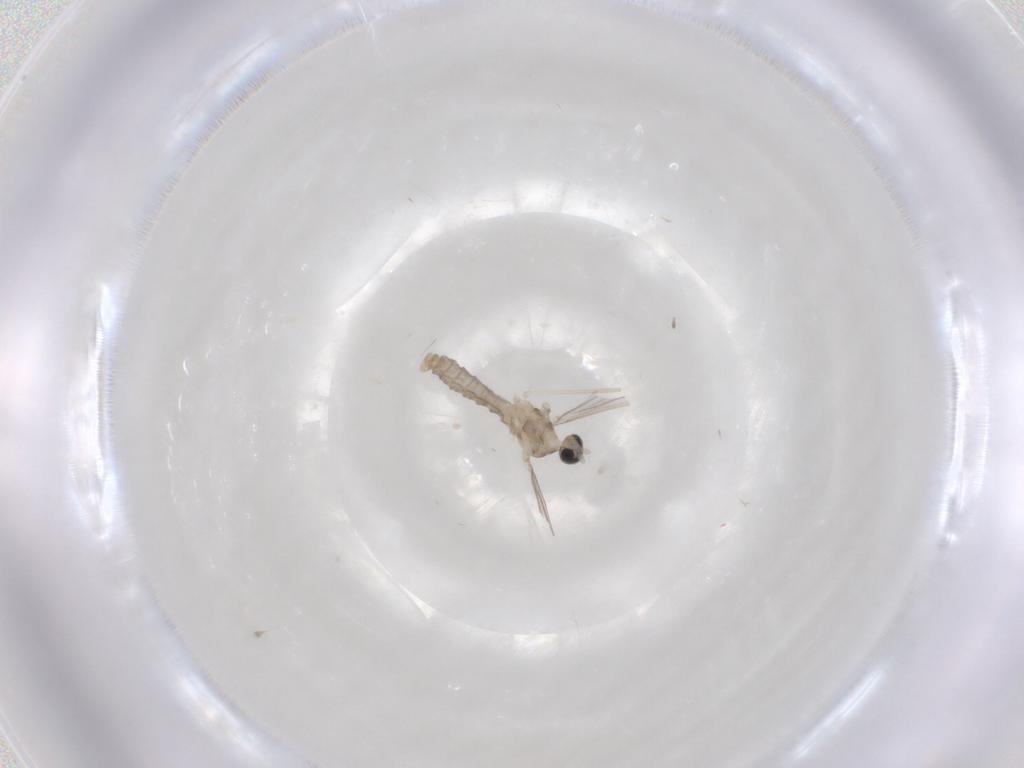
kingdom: Animalia
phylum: Arthropoda
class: Insecta
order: Diptera
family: Cecidomyiidae
